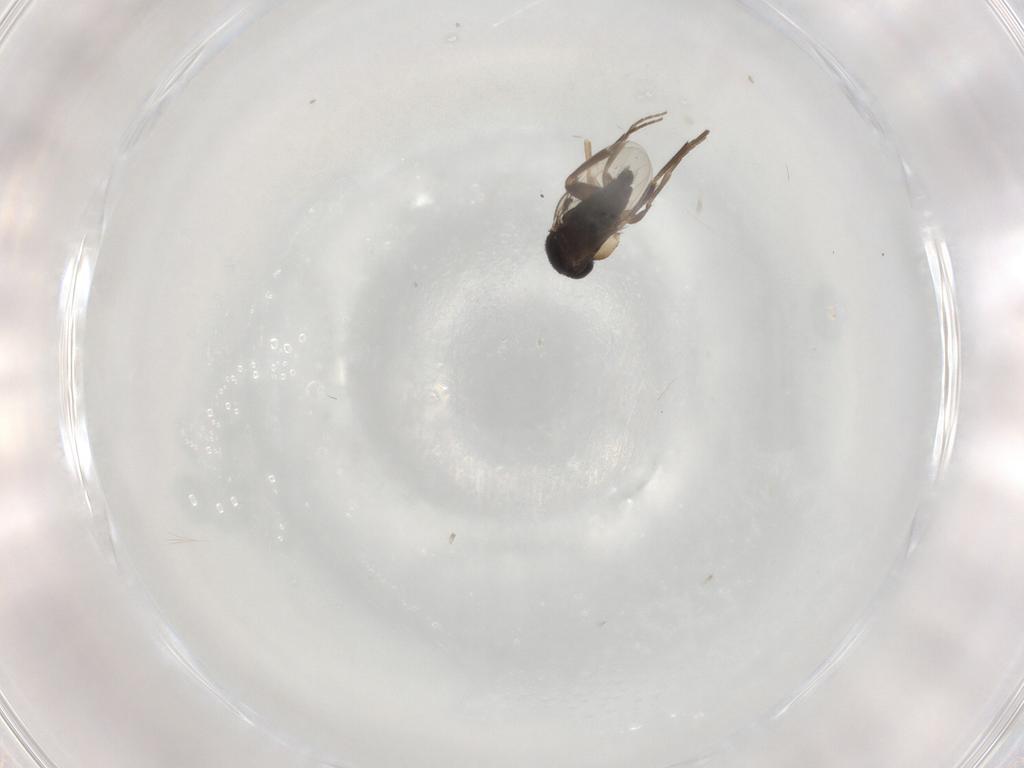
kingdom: Animalia
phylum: Arthropoda
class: Insecta
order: Diptera
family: Phoridae
